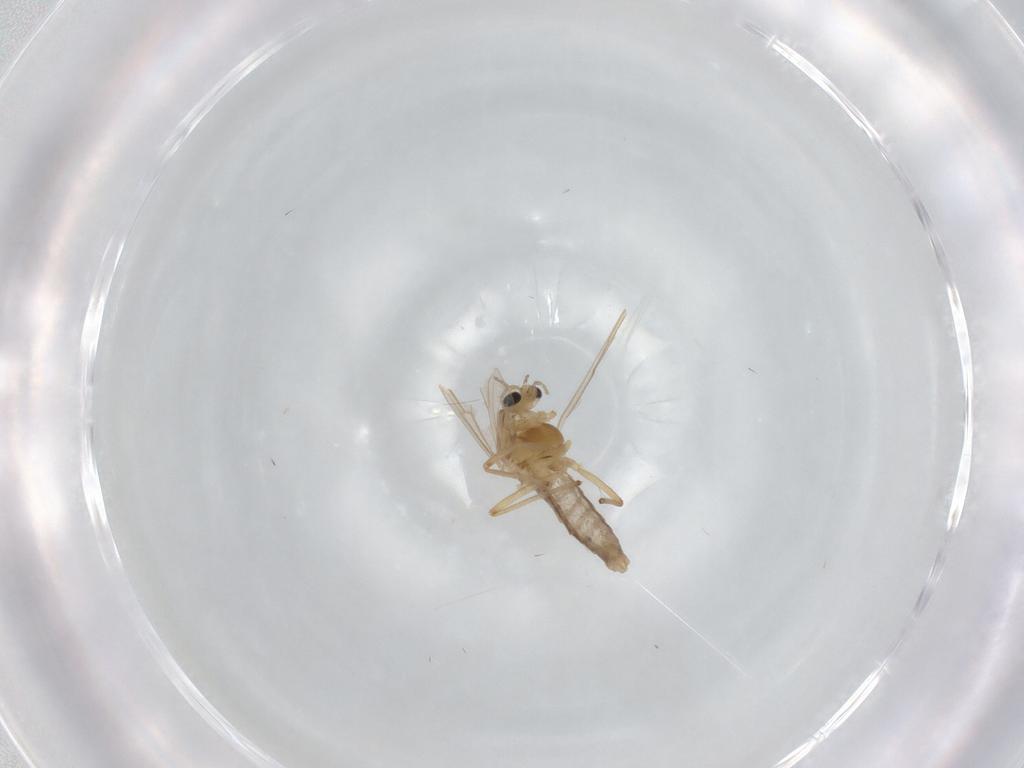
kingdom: Animalia
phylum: Arthropoda
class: Insecta
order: Diptera
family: Chironomidae
